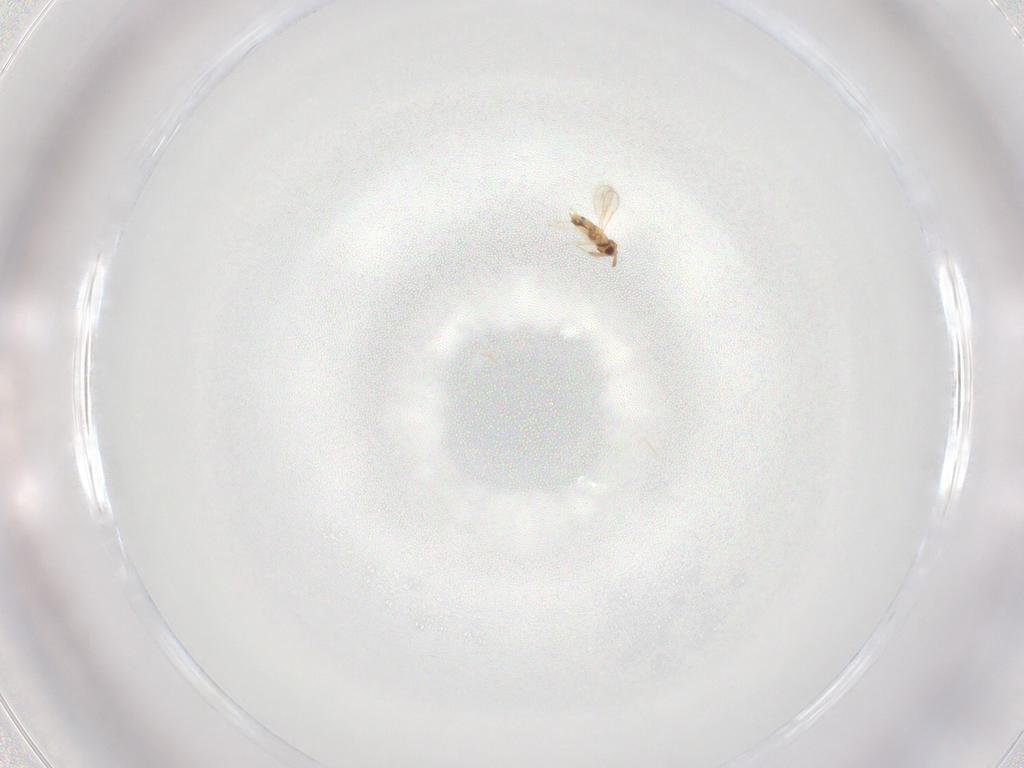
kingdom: Animalia
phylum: Arthropoda
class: Insecta
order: Hymenoptera
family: Aphelinidae
